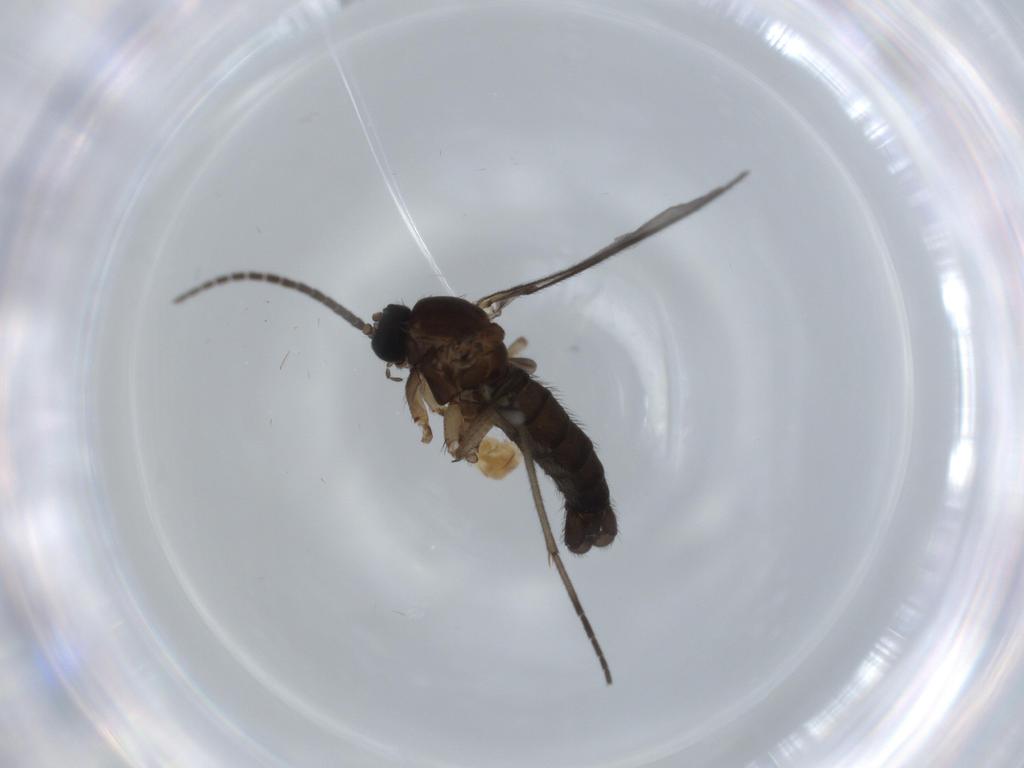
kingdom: Animalia
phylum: Arthropoda
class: Insecta
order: Diptera
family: Sciaridae
